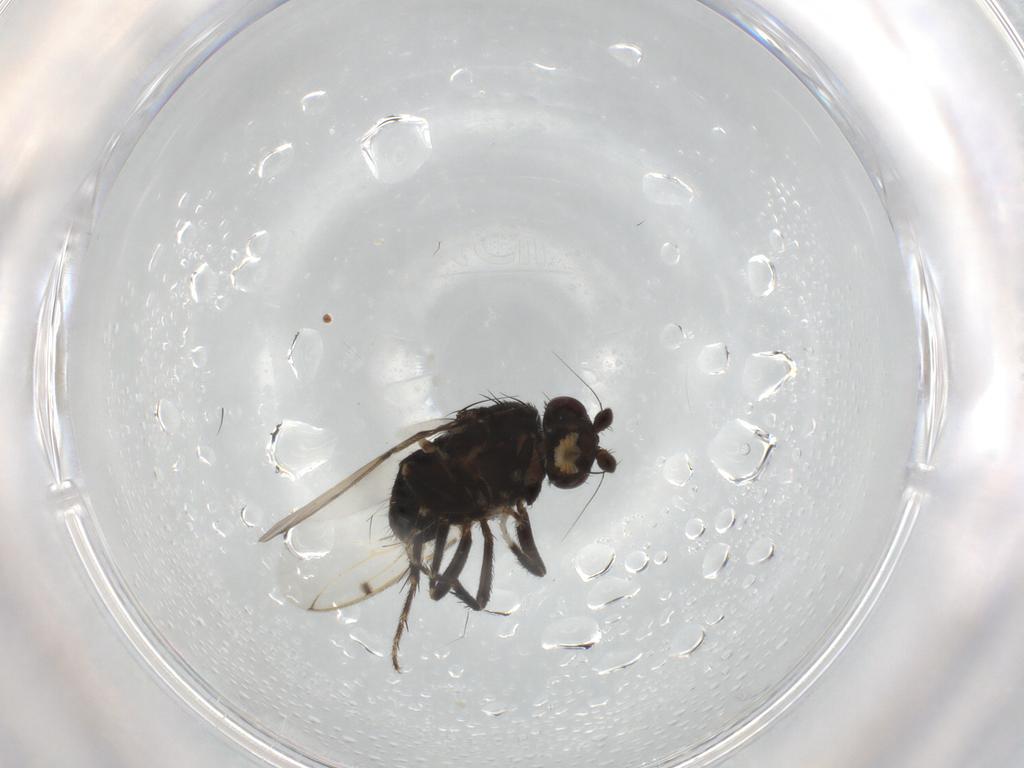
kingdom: Animalia
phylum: Arthropoda
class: Insecta
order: Diptera
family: Sphaeroceridae
